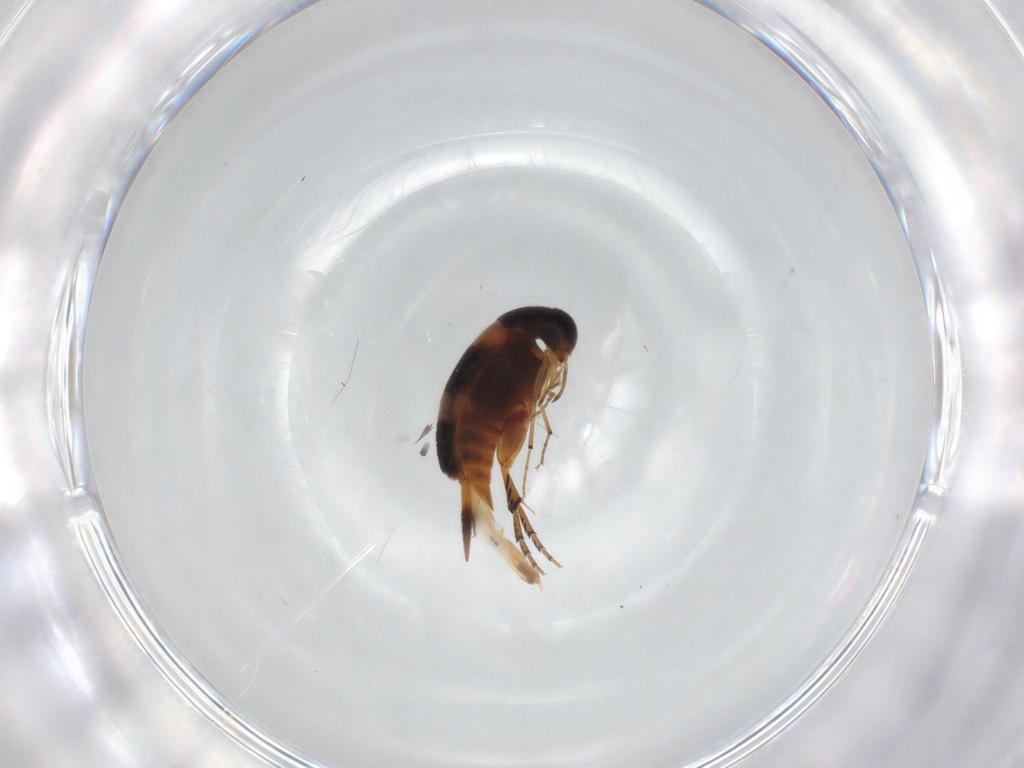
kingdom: Animalia
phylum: Arthropoda
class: Insecta
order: Coleoptera
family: Mordellidae
